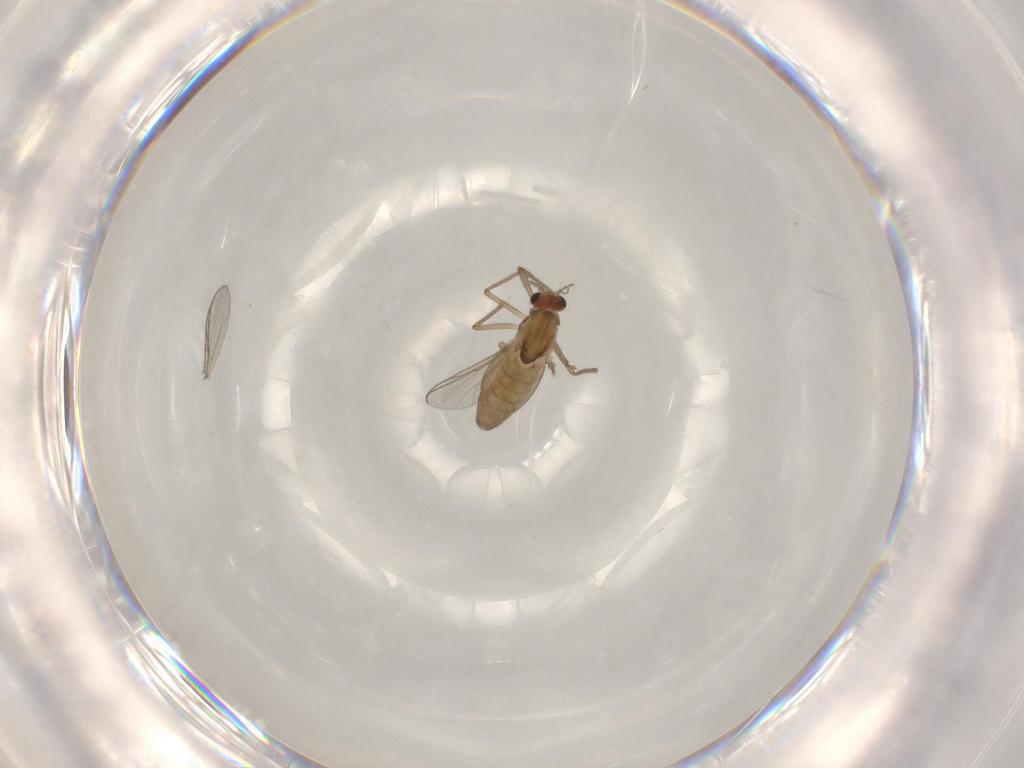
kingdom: Animalia
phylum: Arthropoda
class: Insecta
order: Diptera
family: Chironomidae
